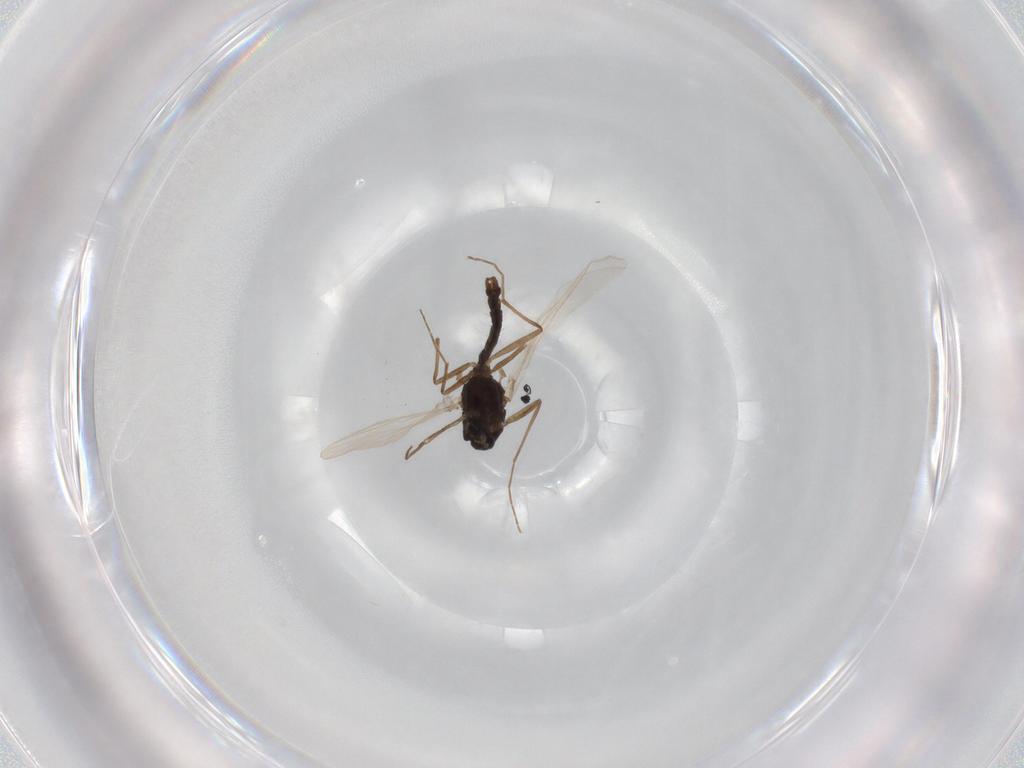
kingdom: Animalia
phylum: Arthropoda
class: Insecta
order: Diptera
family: Chironomidae
